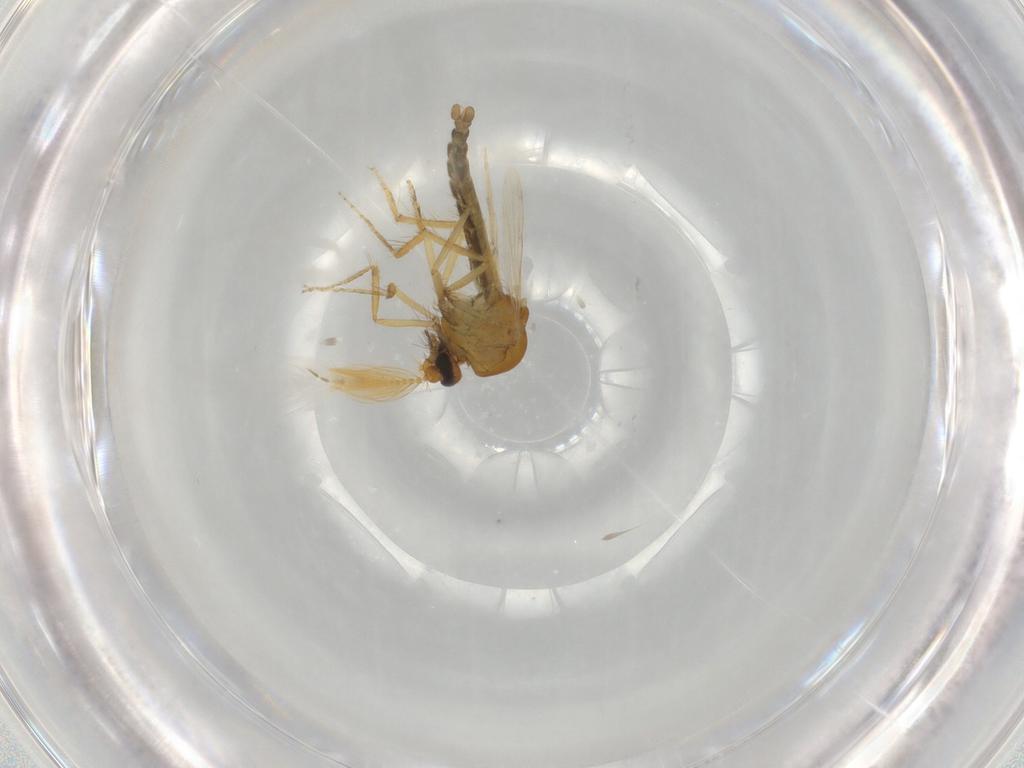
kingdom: Animalia
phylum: Arthropoda
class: Insecta
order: Diptera
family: Ceratopogonidae
